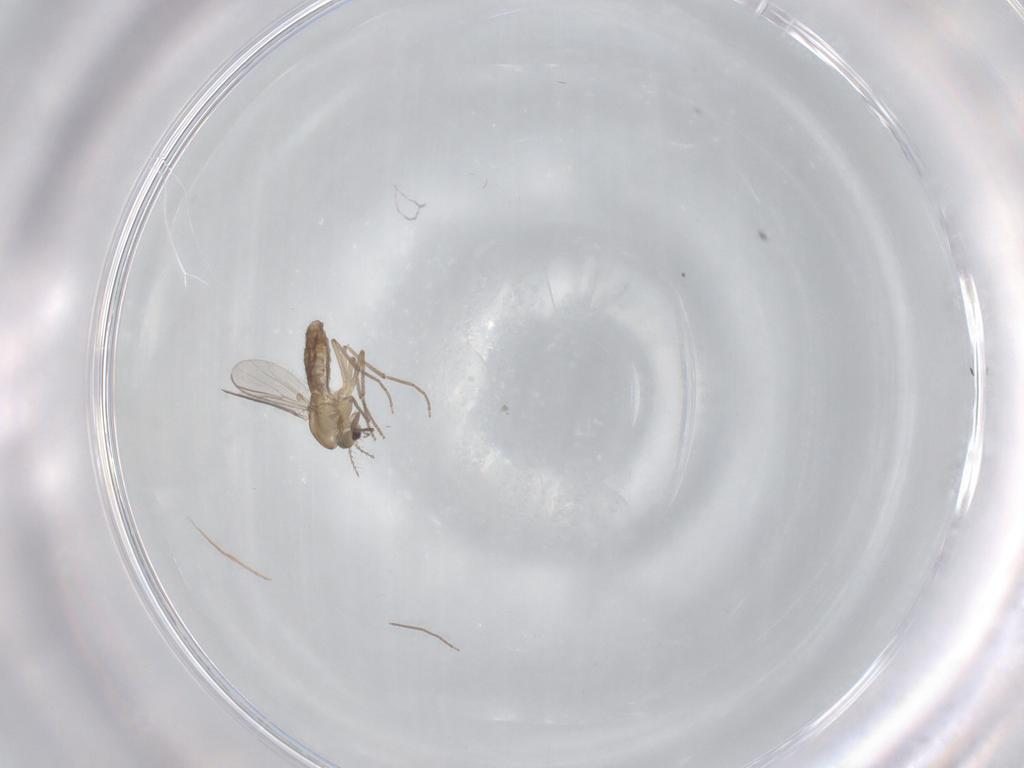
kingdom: Animalia
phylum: Arthropoda
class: Insecta
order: Diptera
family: Chironomidae
